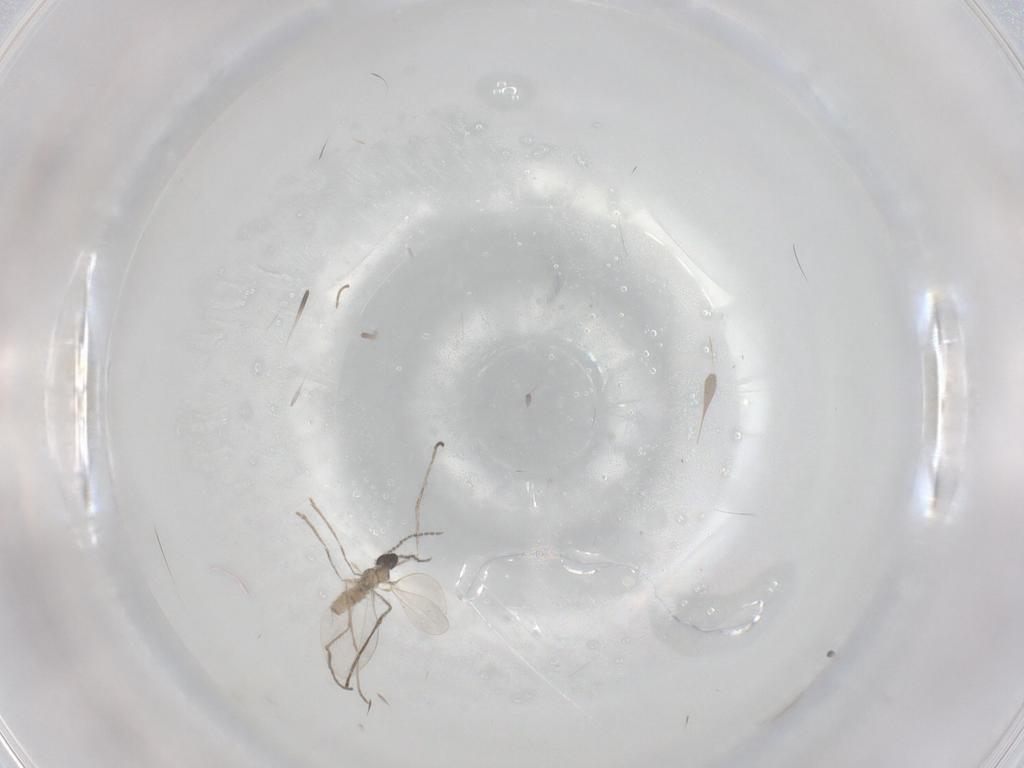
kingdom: Animalia
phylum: Arthropoda
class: Insecta
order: Diptera
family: Cecidomyiidae
